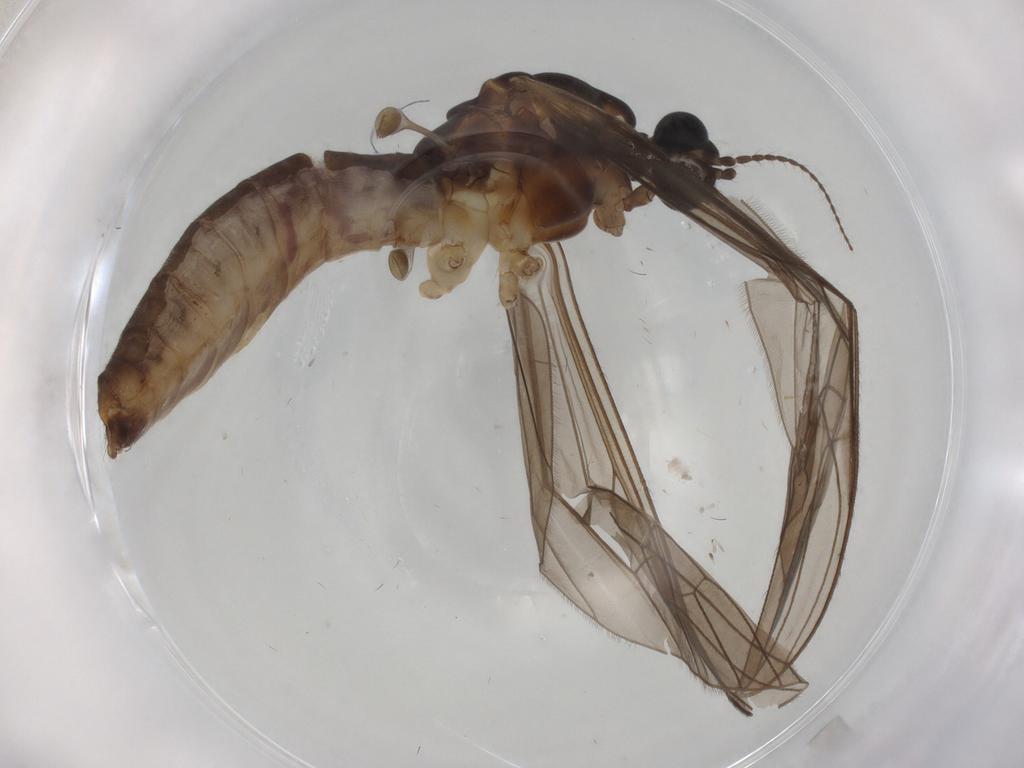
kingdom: Animalia
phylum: Arthropoda
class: Insecta
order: Diptera
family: Limoniidae
